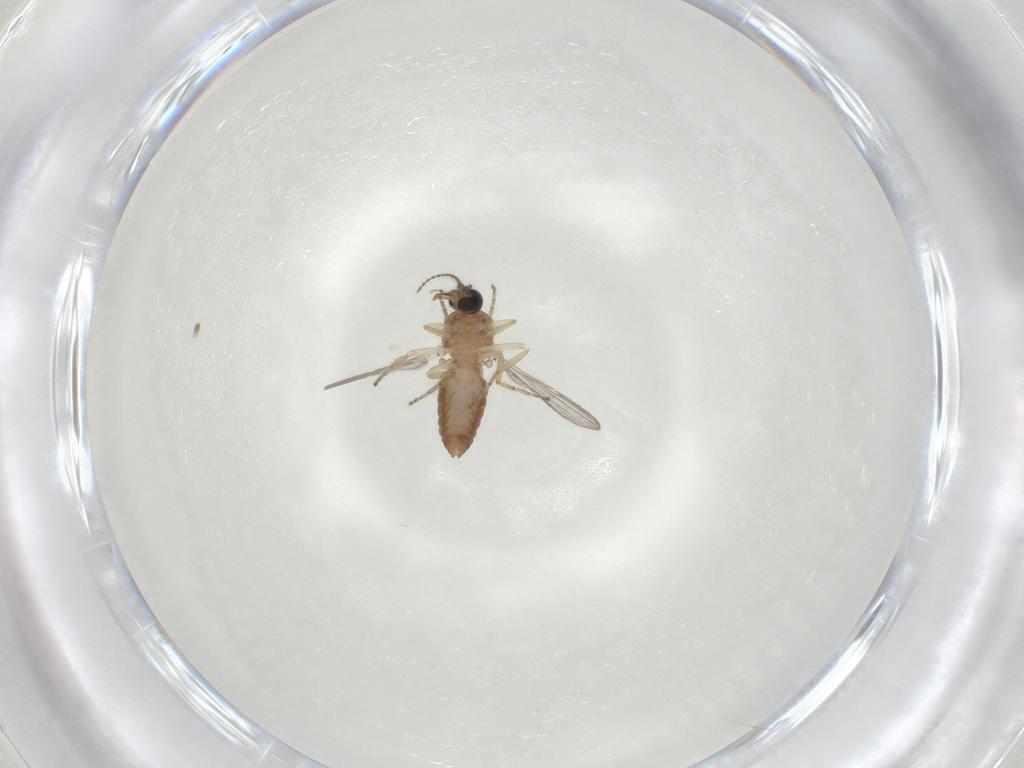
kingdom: Animalia
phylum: Arthropoda
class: Insecta
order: Diptera
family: Ceratopogonidae
